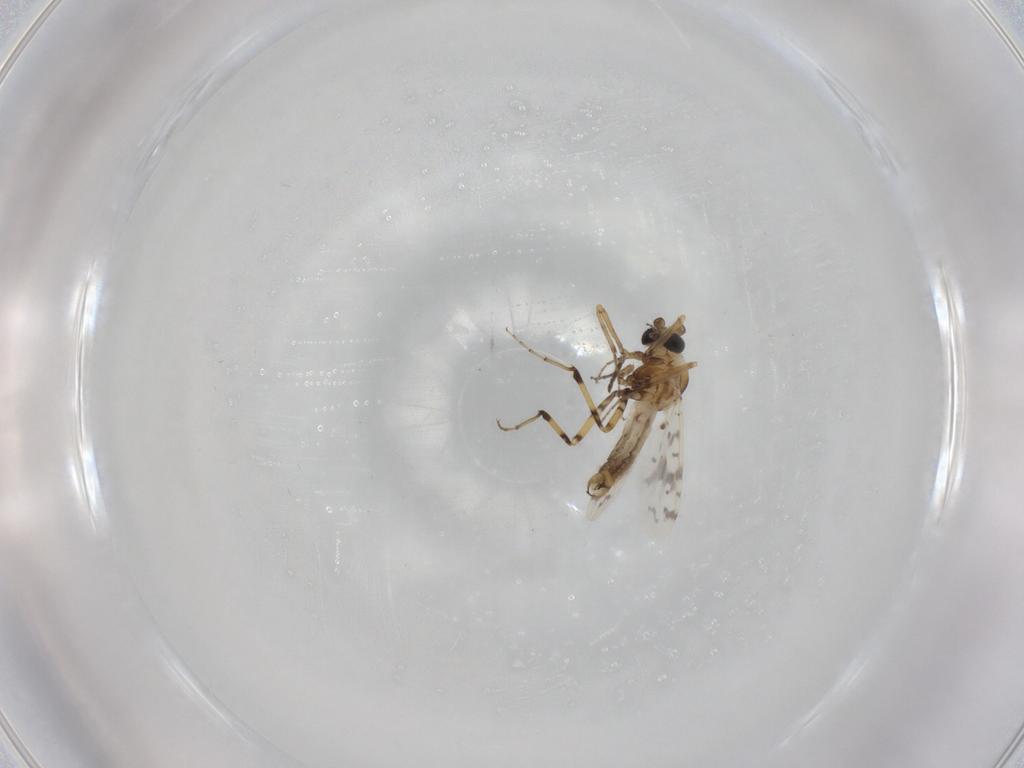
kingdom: Animalia
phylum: Arthropoda
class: Insecta
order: Diptera
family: Ceratopogonidae
